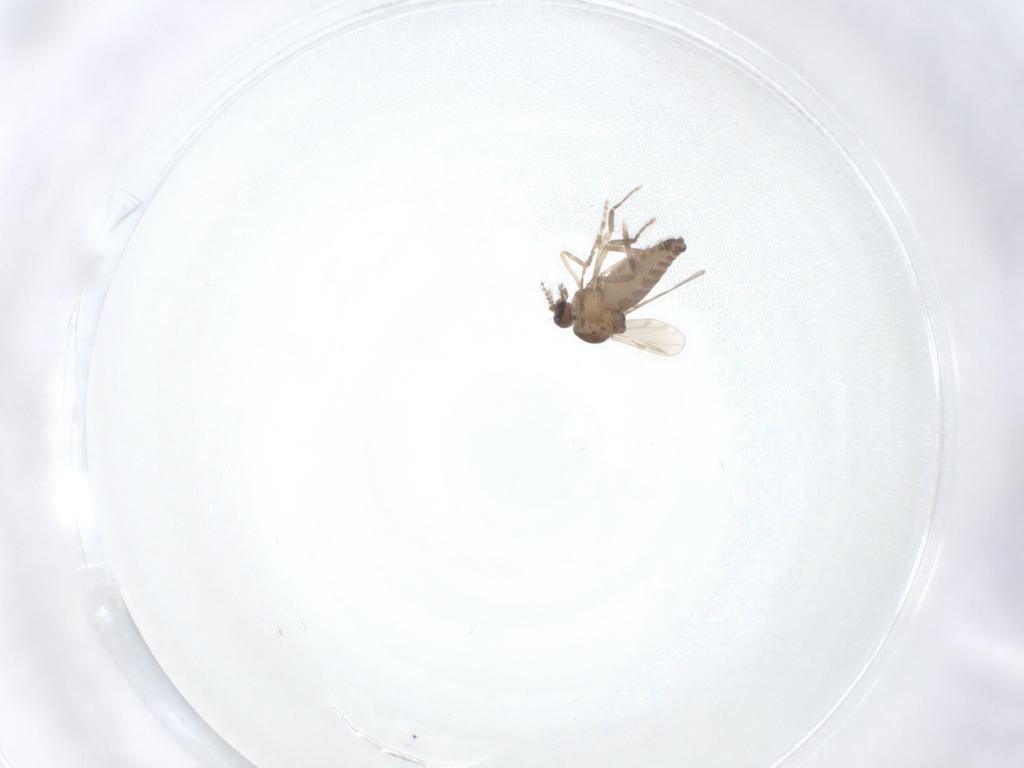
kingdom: Animalia
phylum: Arthropoda
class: Insecta
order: Diptera
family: Ceratopogonidae
